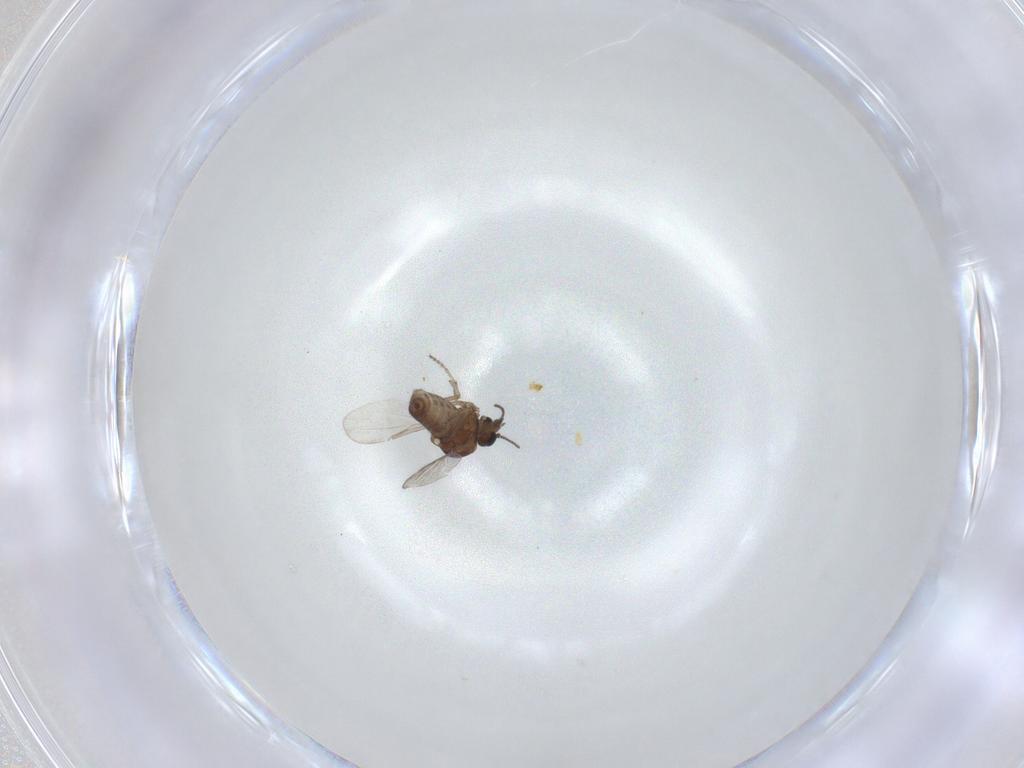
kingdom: Animalia
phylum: Arthropoda
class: Insecta
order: Diptera
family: Ceratopogonidae
